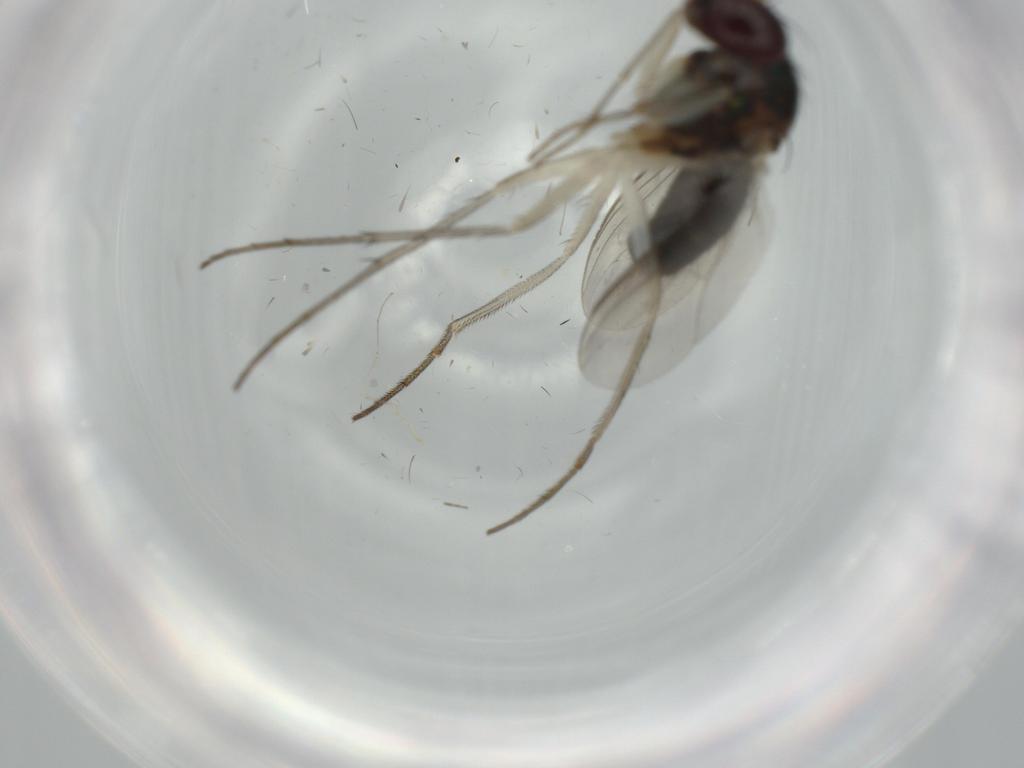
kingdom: Animalia
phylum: Arthropoda
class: Insecta
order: Diptera
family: Dolichopodidae
